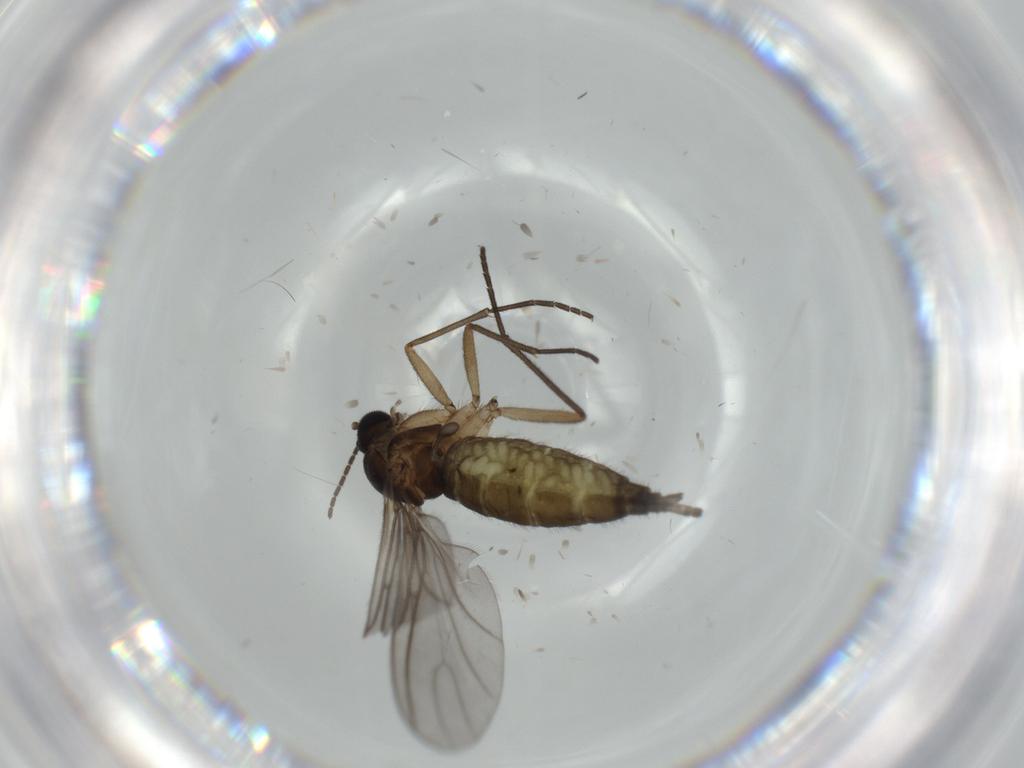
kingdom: Animalia
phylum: Arthropoda
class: Insecta
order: Diptera
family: Sciaridae
